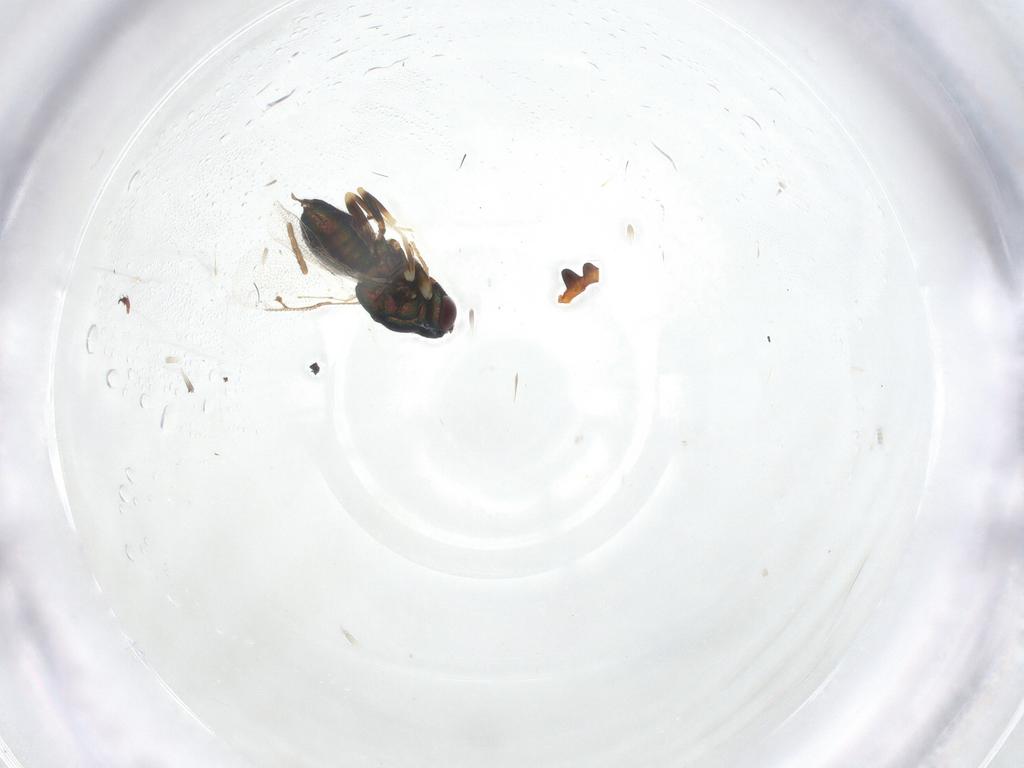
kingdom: Animalia
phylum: Arthropoda
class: Insecta
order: Hymenoptera
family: Formicidae
